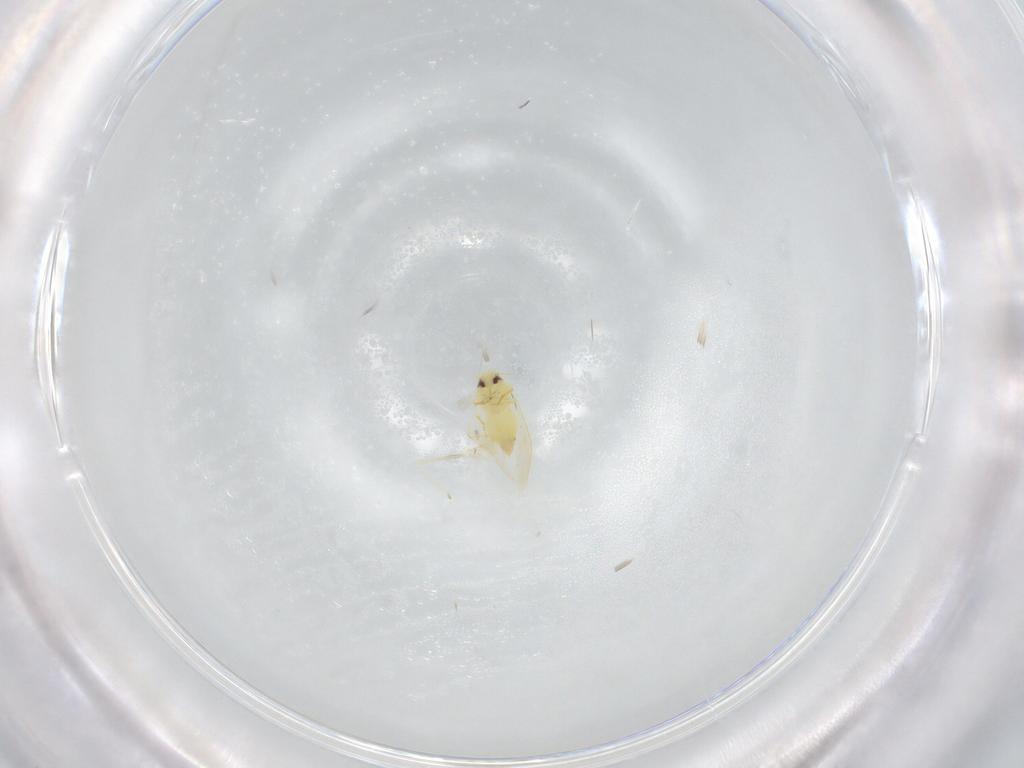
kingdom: Animalia
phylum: Arthropoda
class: Insecta
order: Hemiptera
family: Aleyrodidae
